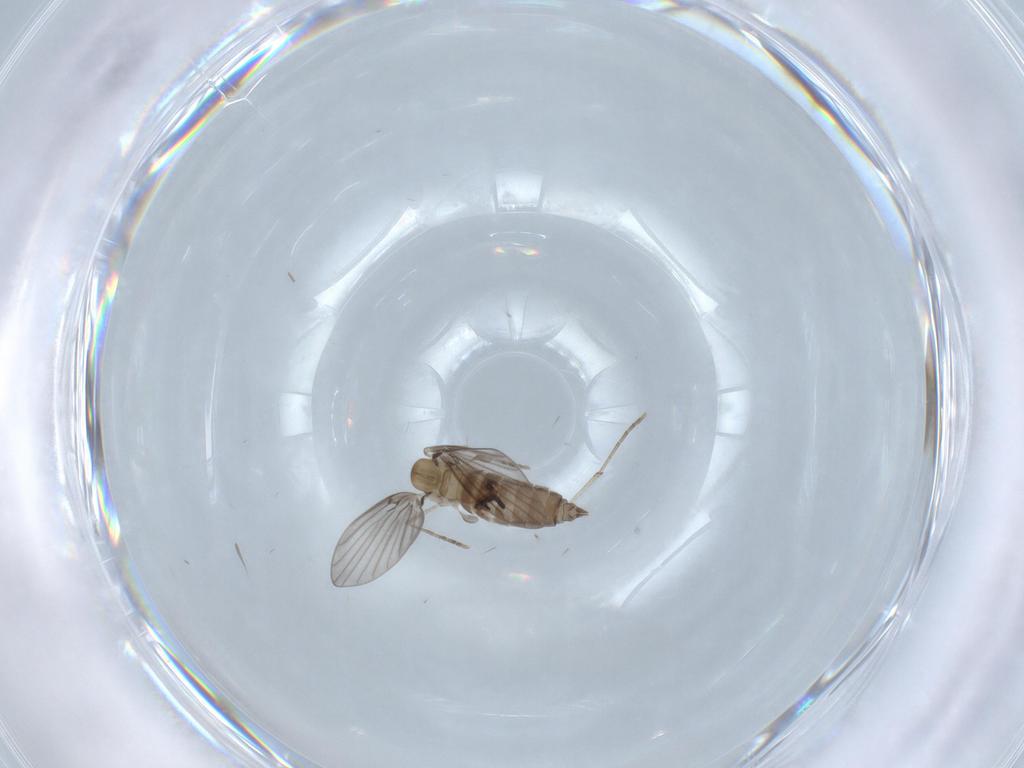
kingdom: Animalia
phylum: Arthropoda
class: Insecta
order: Diptera
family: Chironomidae
